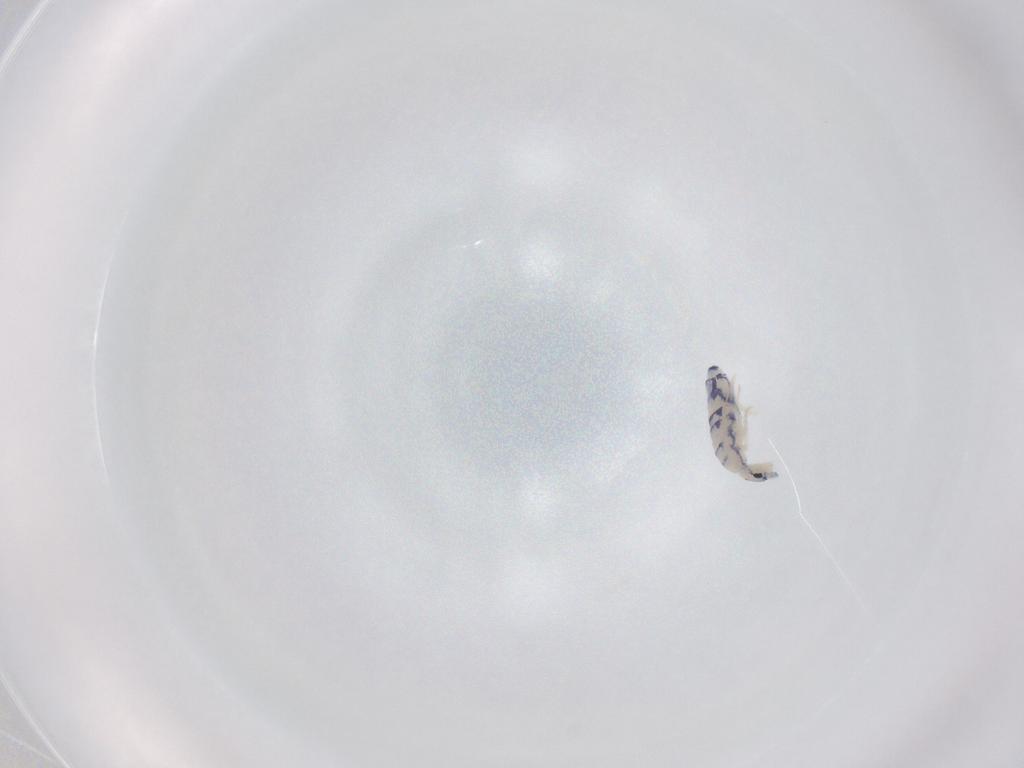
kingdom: Animalia
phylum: Arthropoda
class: Collembola
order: Entomobryomorpha
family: Entomobryidae
